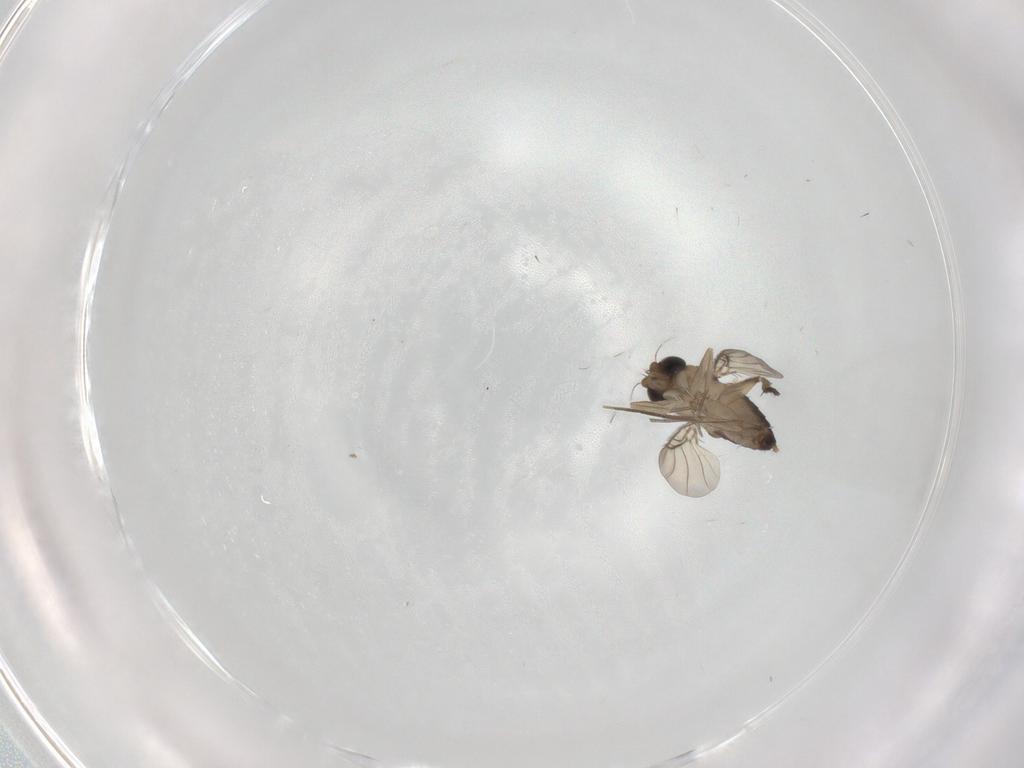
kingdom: Animalia
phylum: Arthropoda
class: Insecta
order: Diptera
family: Phoridae
